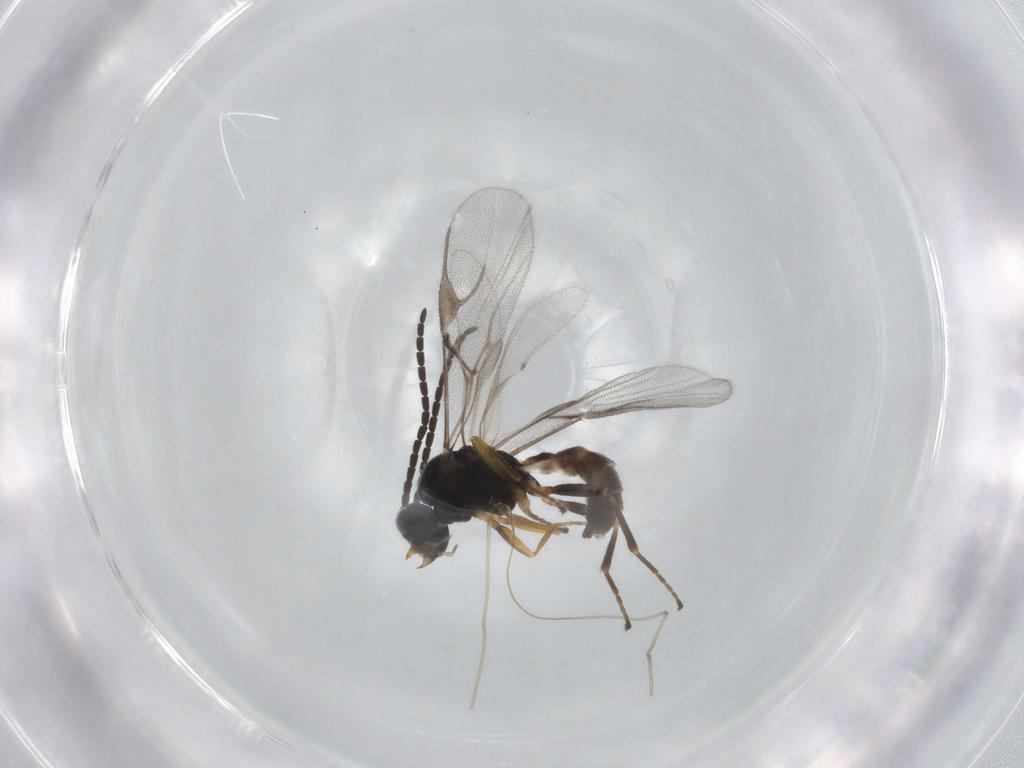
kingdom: Animalia
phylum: Arthropoda
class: Insecta
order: Hymenoptera
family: Braconidae
